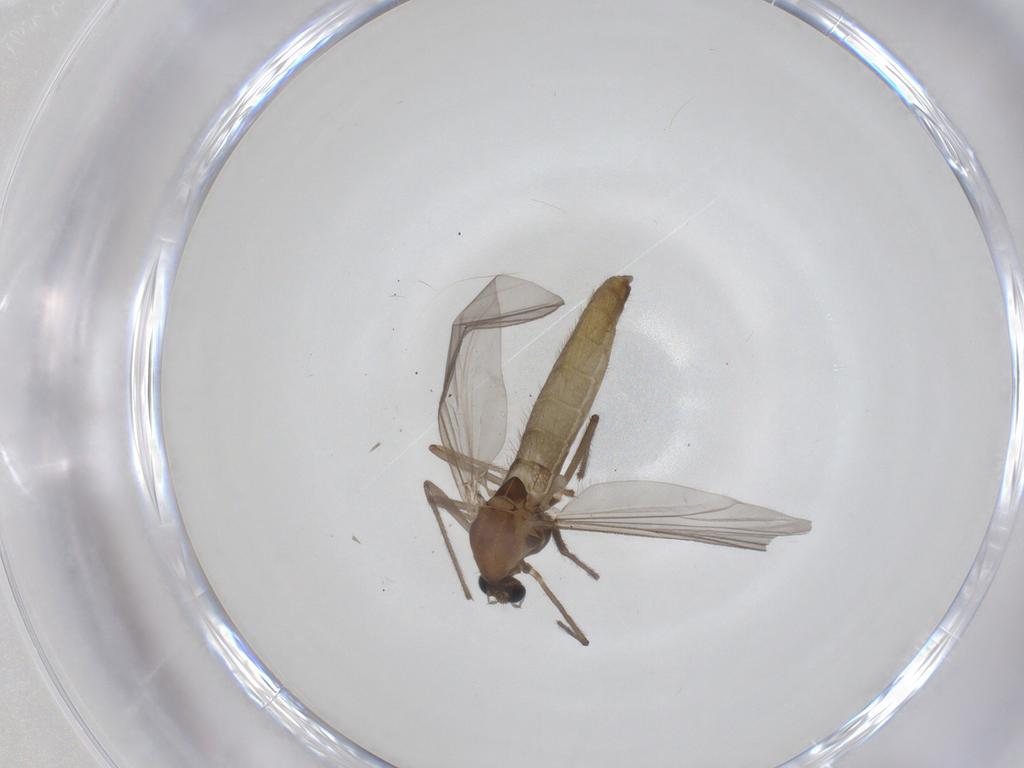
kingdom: Animalia
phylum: Arthropoda
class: Insecta
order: Diptera
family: Chironomidae
